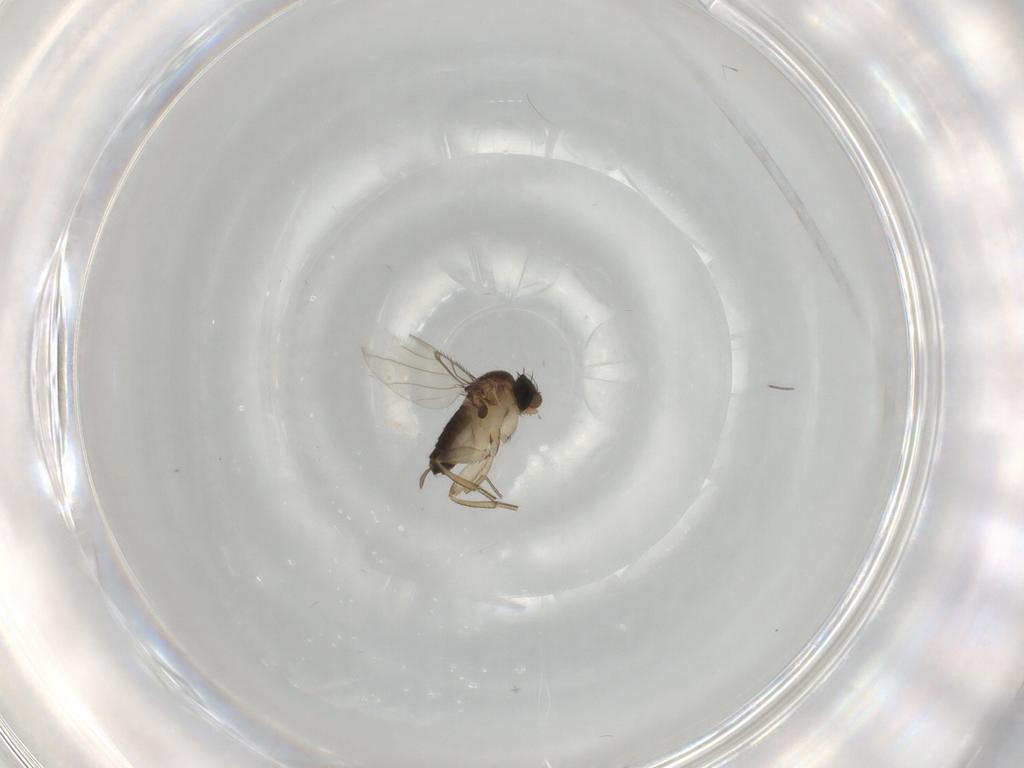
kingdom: Animalia
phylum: Arthropoda
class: Insecta
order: Diptera
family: Chironomidae
